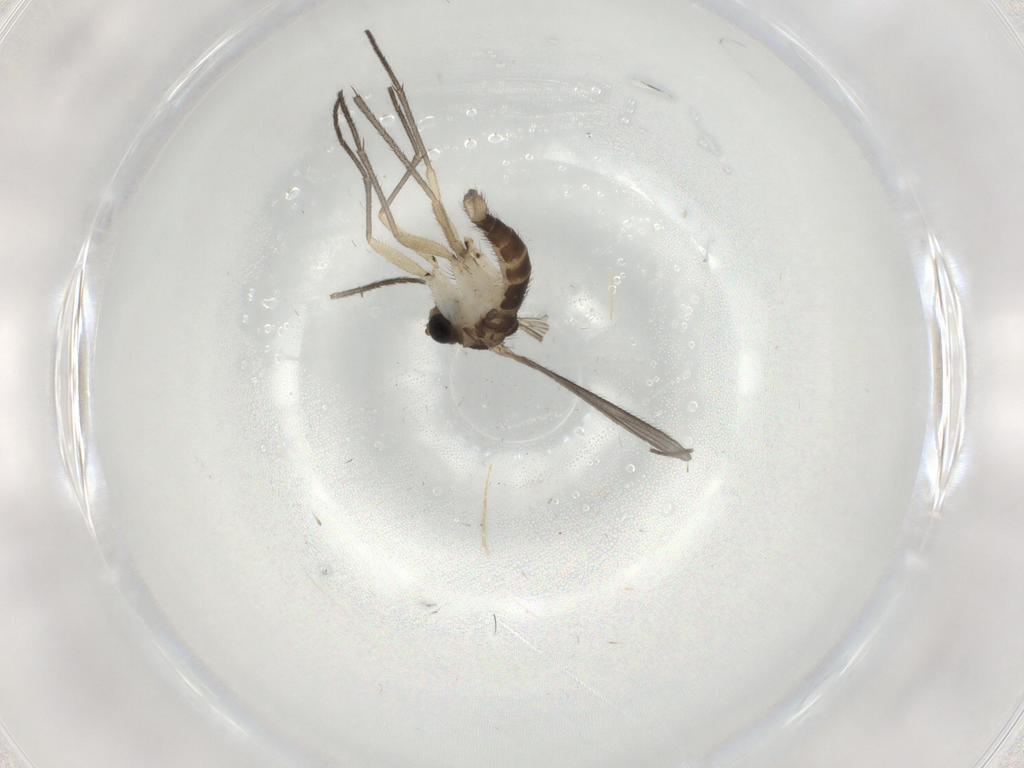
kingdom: Animalia
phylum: Arthropoda
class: Insecta
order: Diptera
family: Sciaridae
